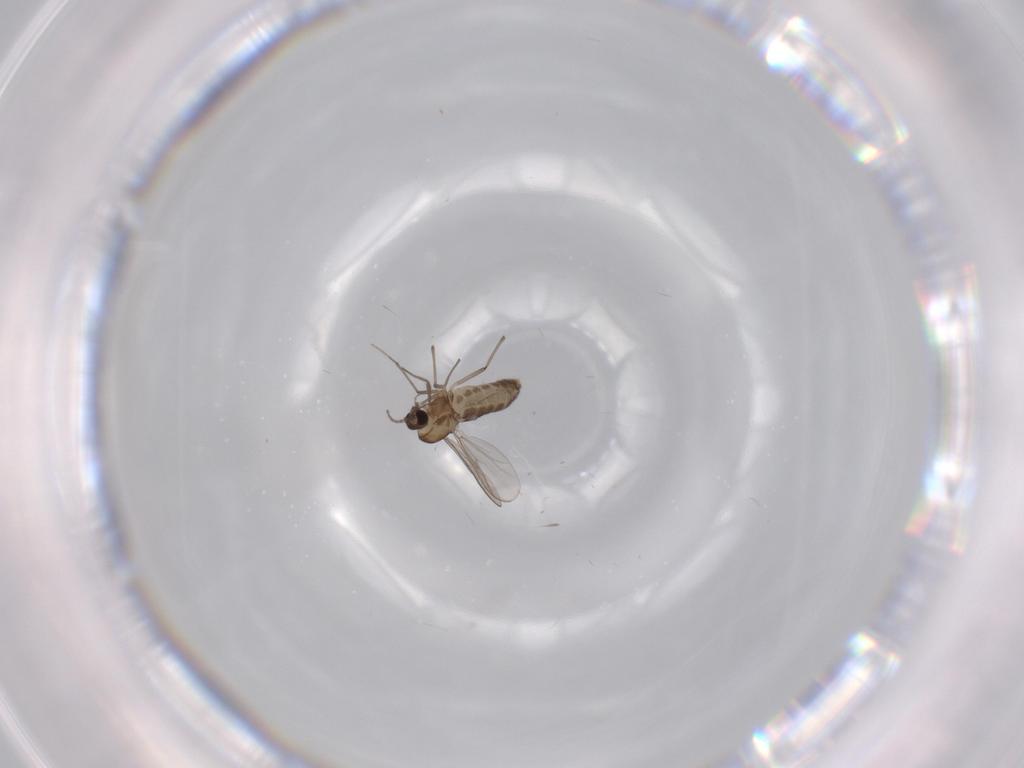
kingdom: Animalia
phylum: Arthropoda
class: Insecta
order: Diptera
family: Chironomidae
